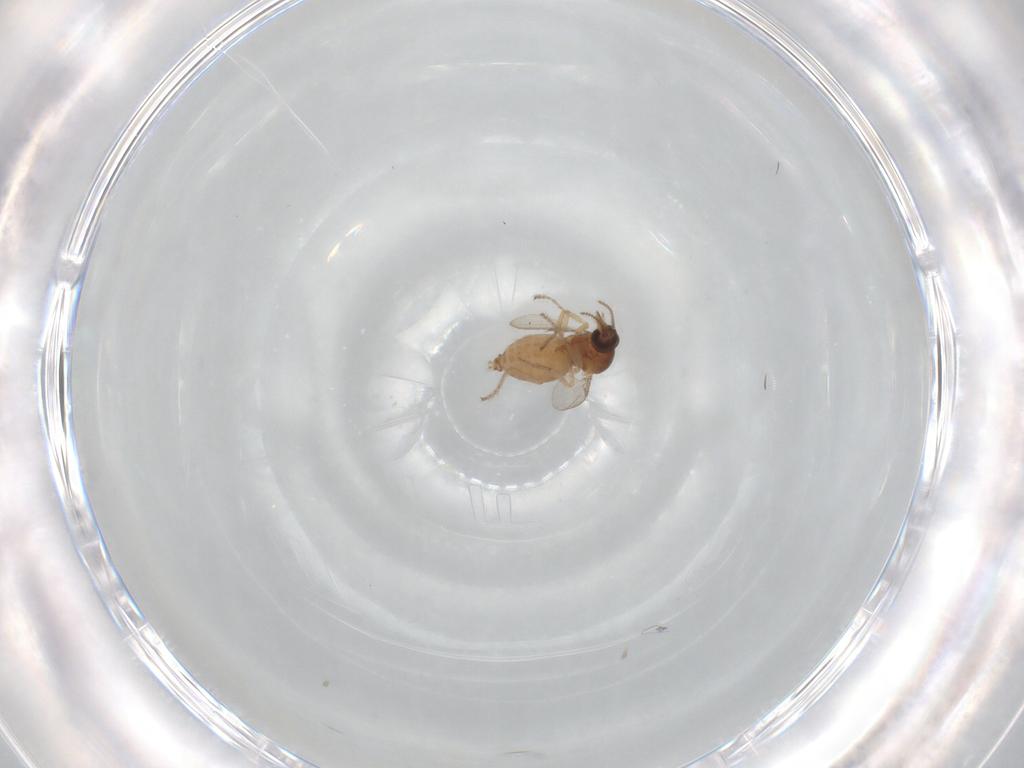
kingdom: Animalia
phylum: Arthropoda
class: Insecta
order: Diptera
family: Ceratopogonidae
